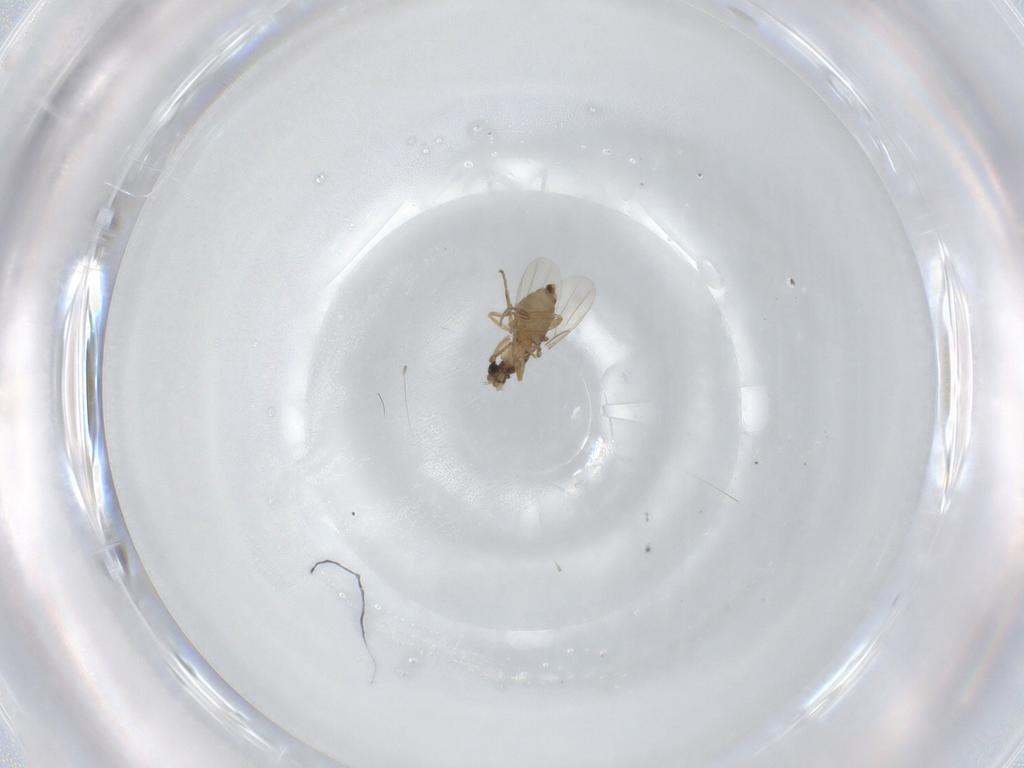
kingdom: Animalia
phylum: Arthropoda
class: Insecta
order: Diptera
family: Phoridae
